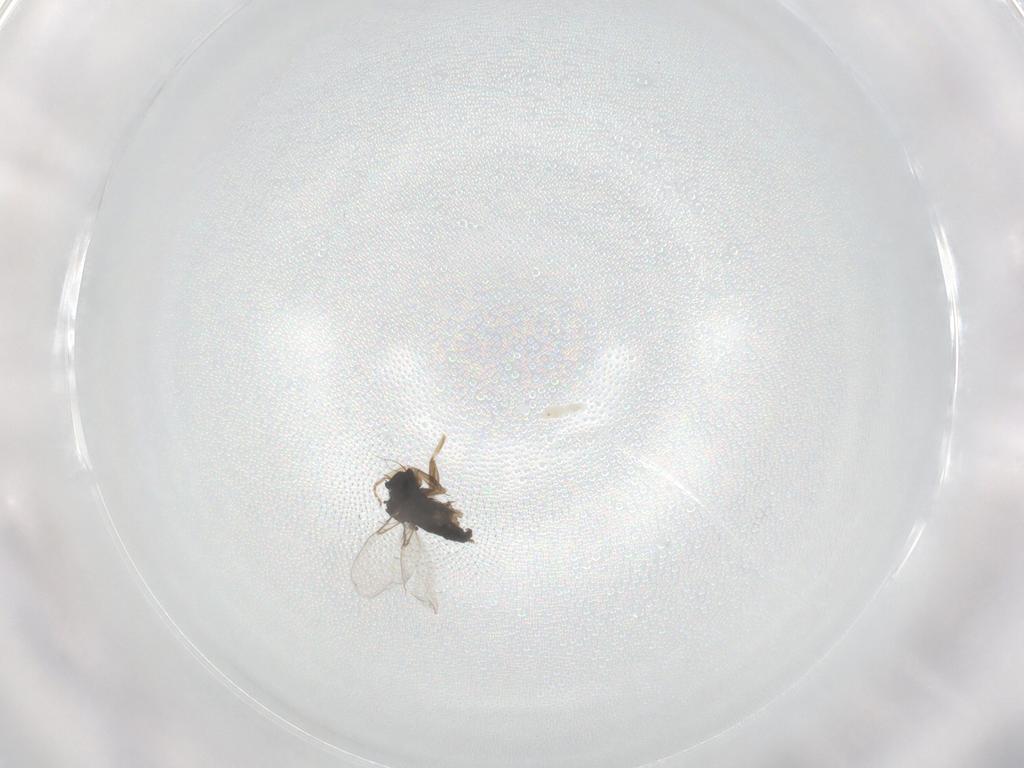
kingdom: Animalia
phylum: Arthropoda
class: Insecta
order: Diptera
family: Phoridae
